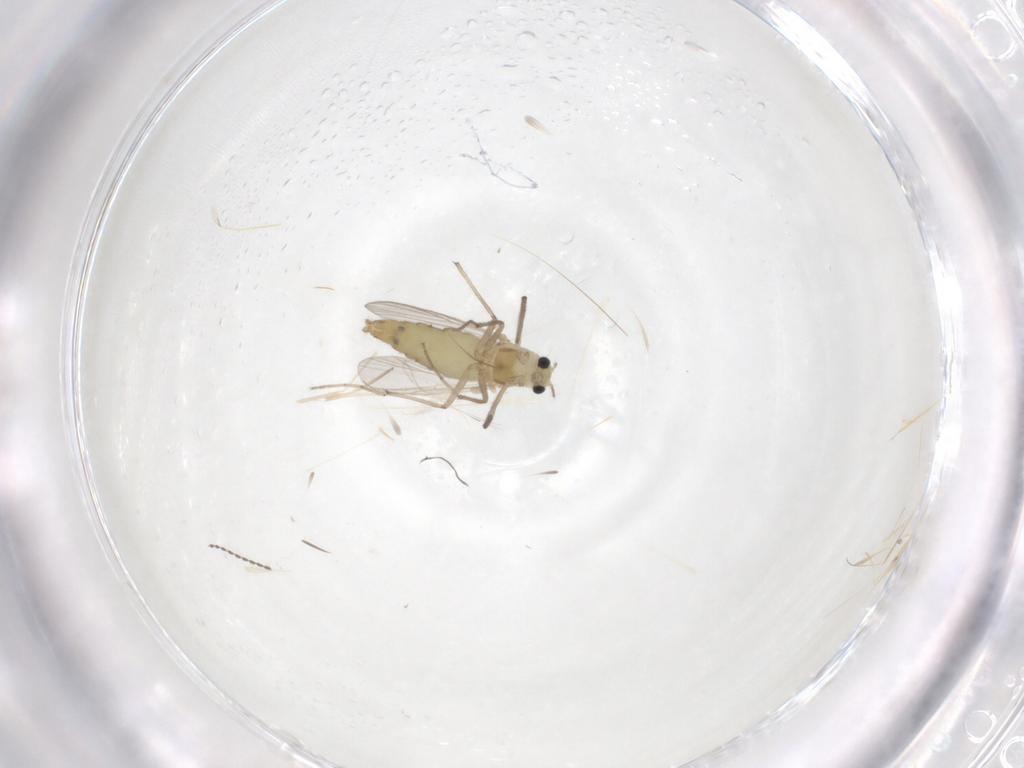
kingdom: Animalia
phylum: Arthropoda
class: Insecta
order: Diptera
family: Chironomidae
